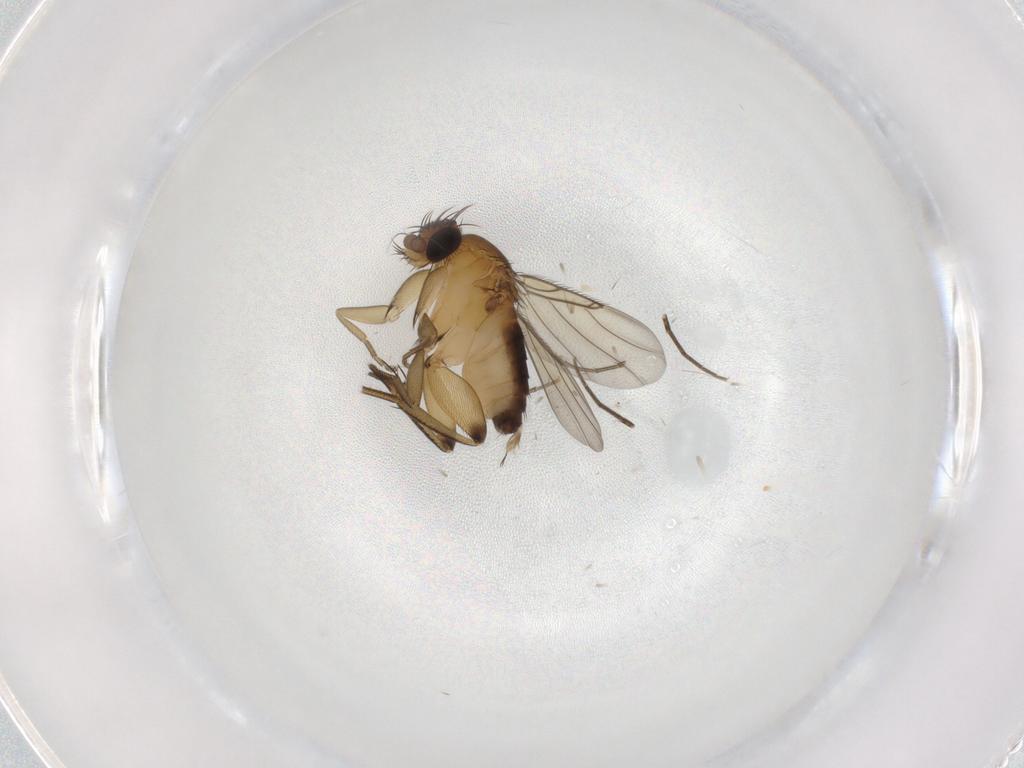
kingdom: Animalia
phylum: Arthropoda
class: Insecta
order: Diptera
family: Phoridae
